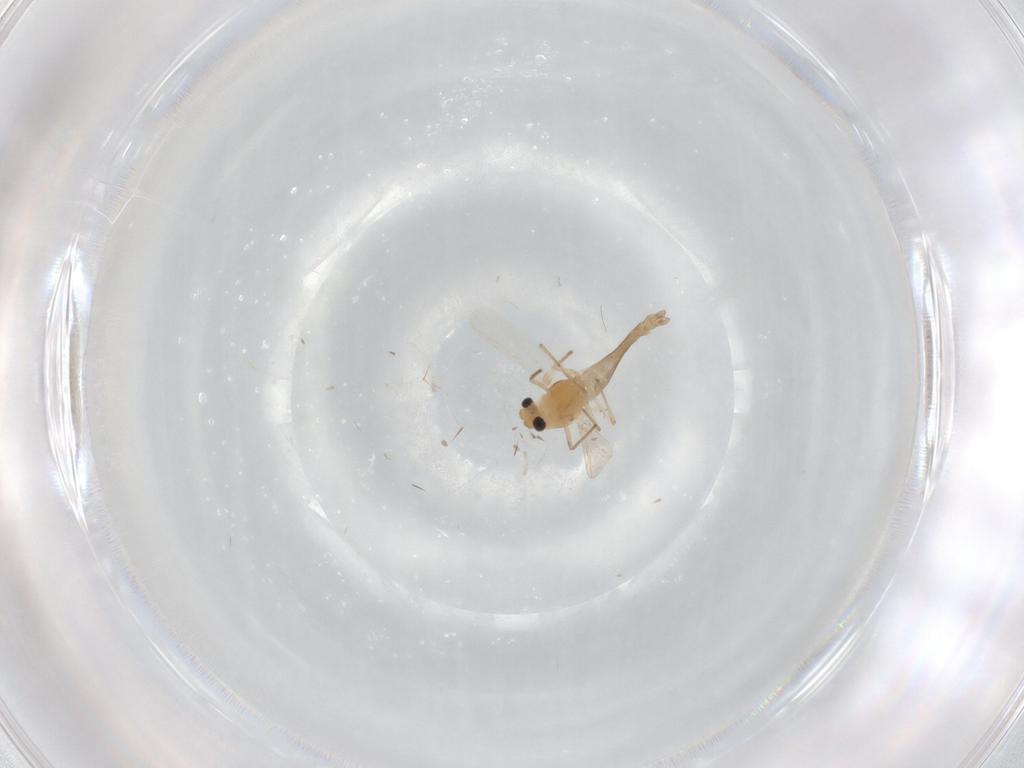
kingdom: Animalia
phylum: Arthropoda
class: Insecta
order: Diptera
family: Chironomidae
